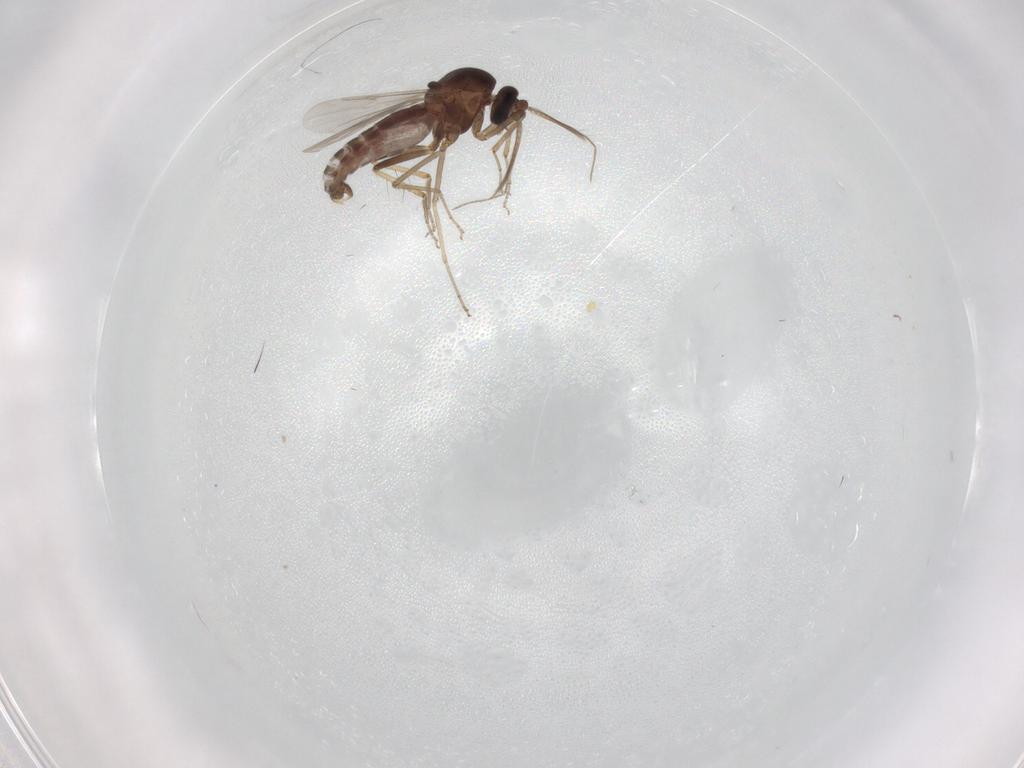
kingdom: Animalia
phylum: Arthropoda
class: Insecta
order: Diptera
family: Ceratopogonidae
